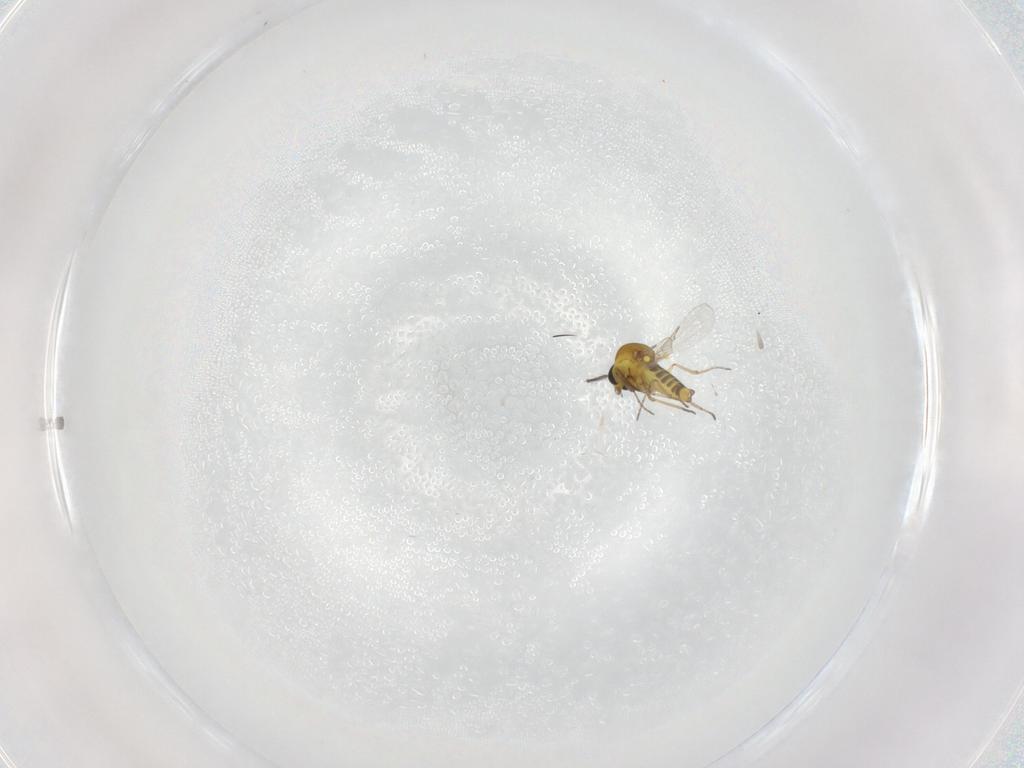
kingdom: Animalia
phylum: Arthropoda
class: Insecta
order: Diptera
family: Ceratopogonidae
